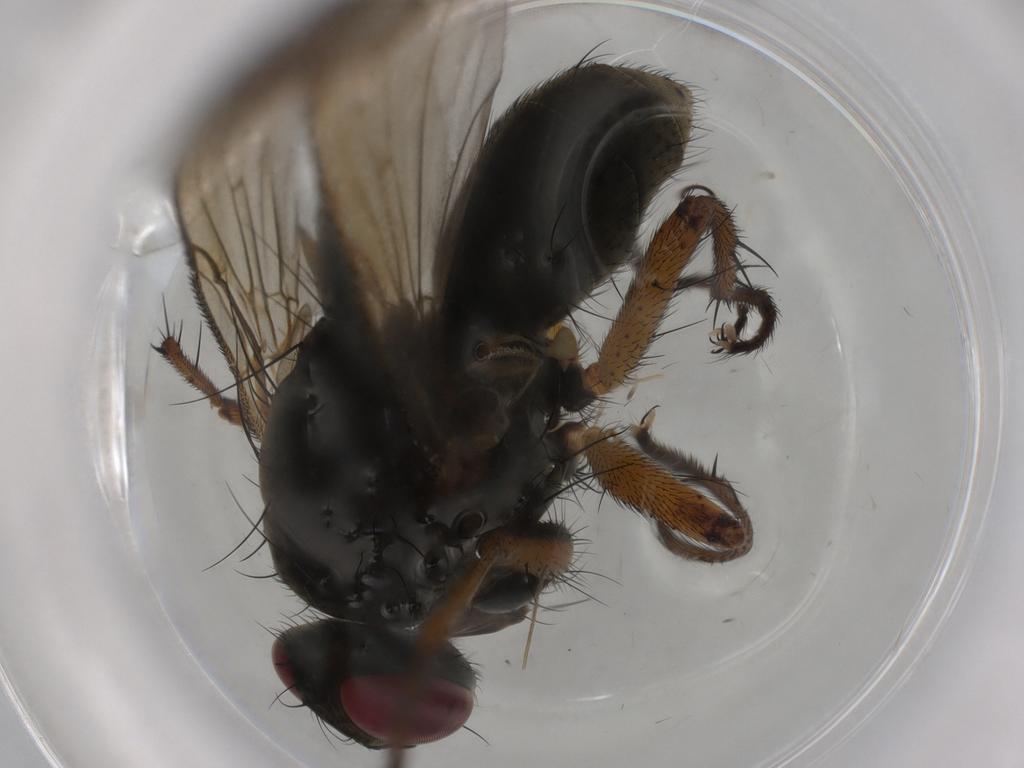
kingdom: Animalia
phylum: Arthropoda
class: Insecta
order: Diptera
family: Muscidae
